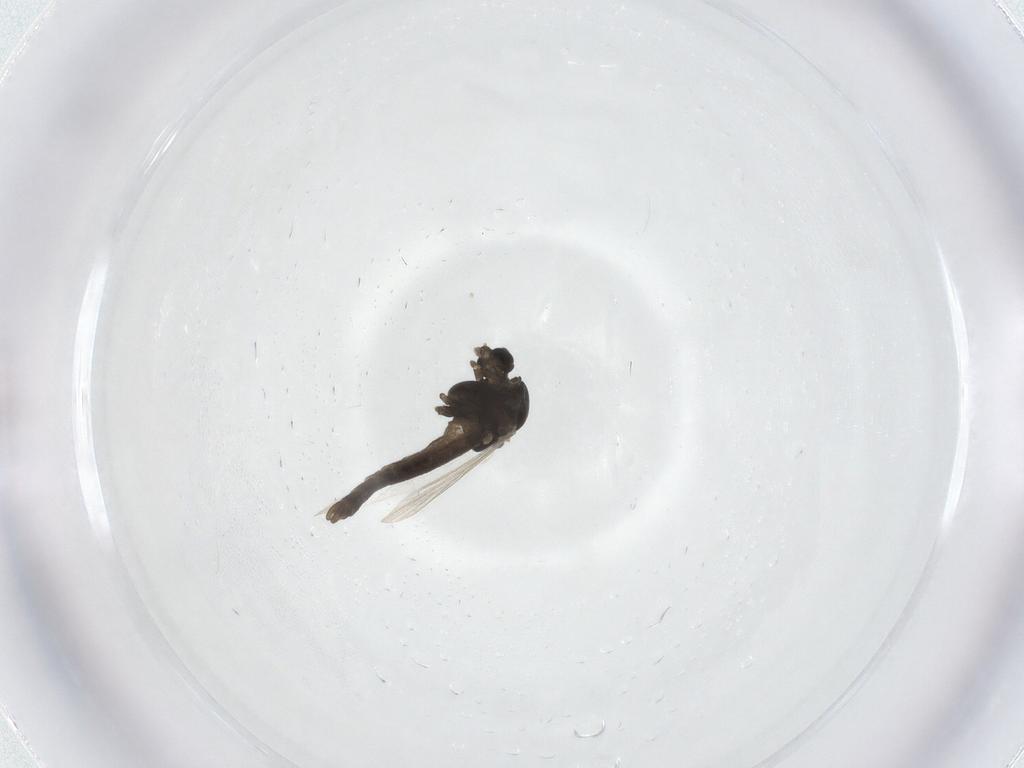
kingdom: Animalia
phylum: Arthropoda
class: Insecta
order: Diptera
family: Chironomidae
